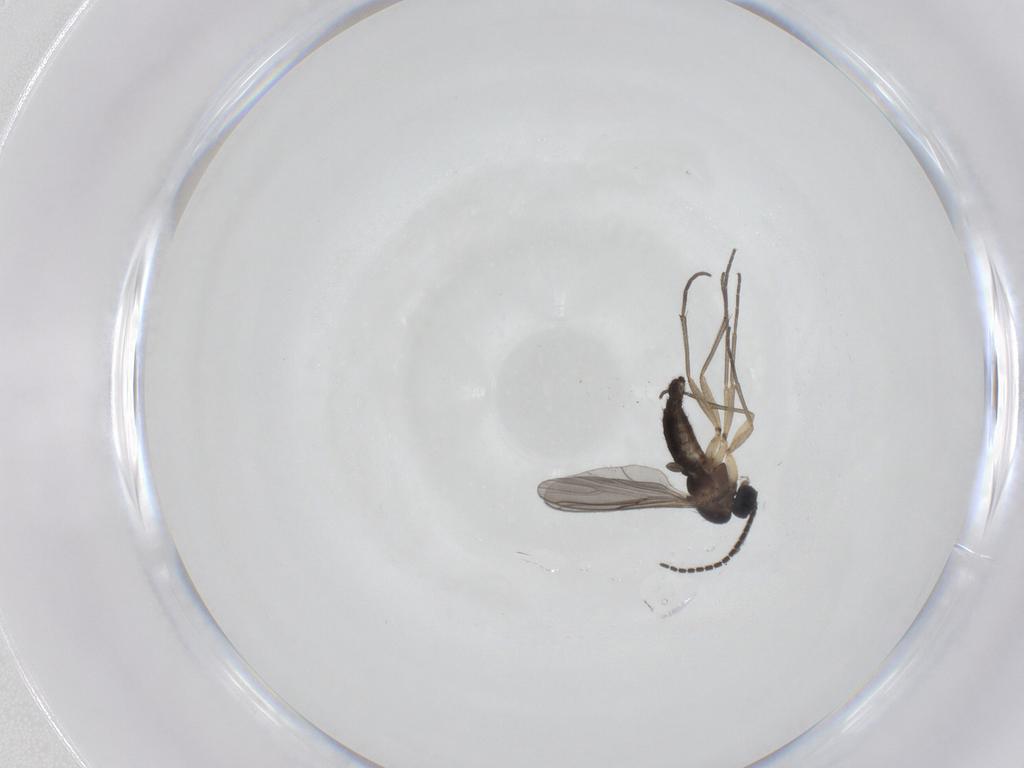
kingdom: Animalia
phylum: Arthropoda
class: Insecta
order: Diptera
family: Sciaridae
